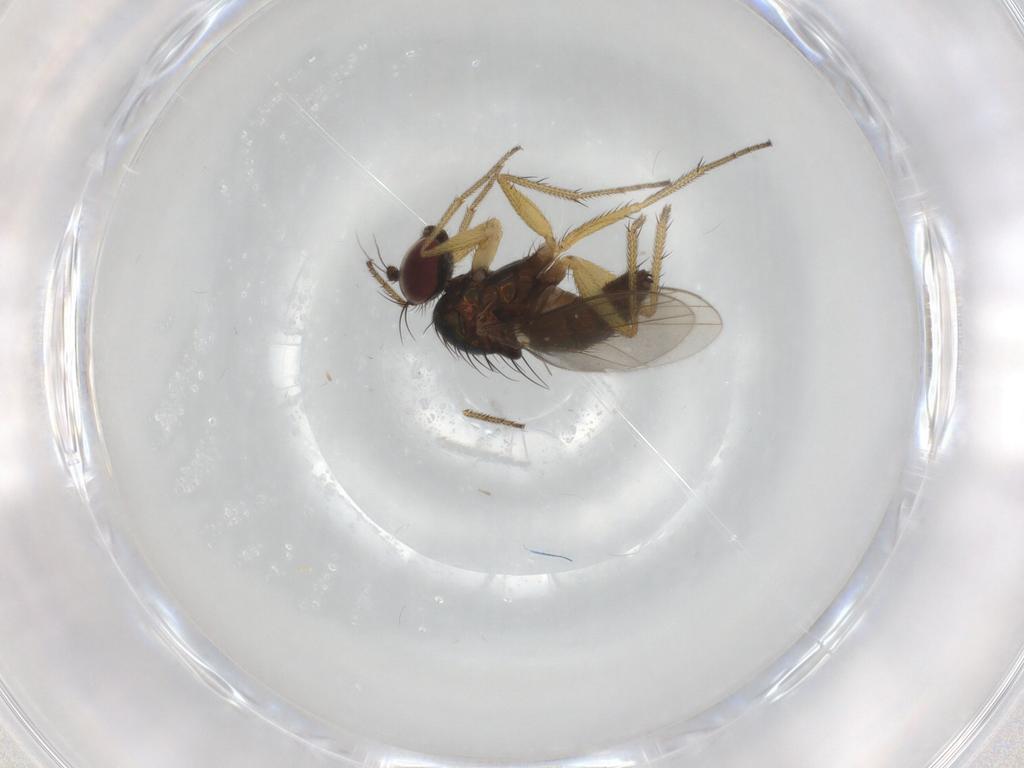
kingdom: Animalia
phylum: Arthropoda
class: Insecta
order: Diptera
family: Dolichopodidae
